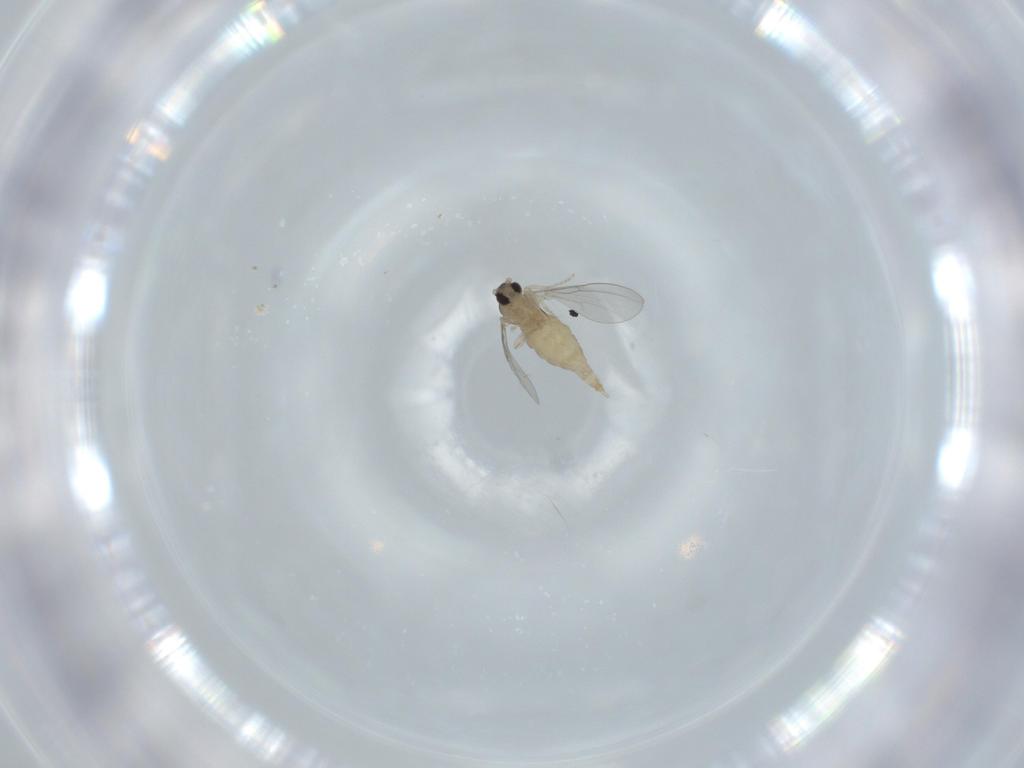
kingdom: Animalia
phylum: Arthropoda
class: Insecta
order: Diptera
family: Cecidomyiidae
